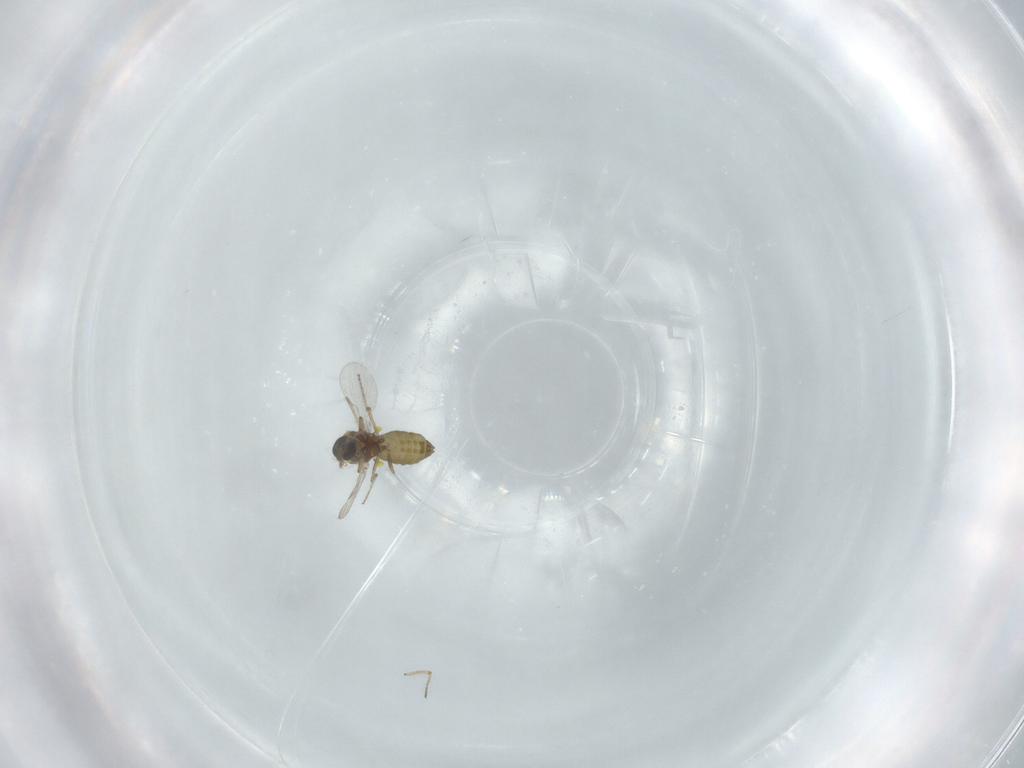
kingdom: Animalia
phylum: Arthropoda
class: Insecta
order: Diptera
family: Ceratopogonidae
